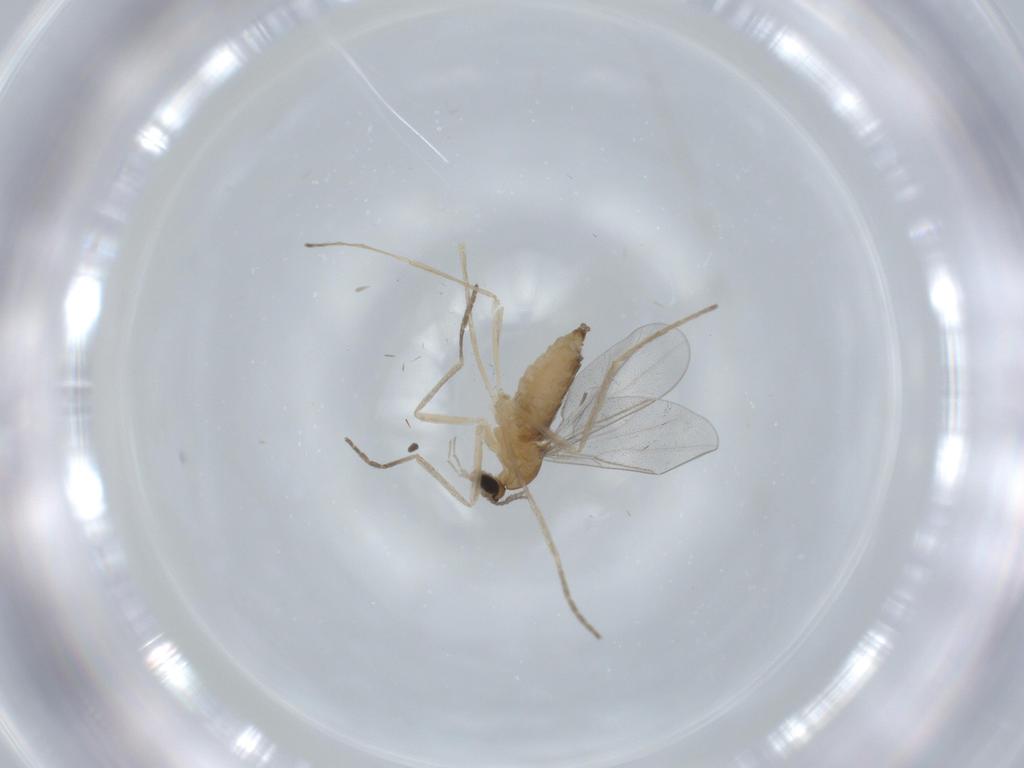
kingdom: Animalia
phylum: Arthropoda
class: Insecta
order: Diptera
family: Cecidomyiidae
